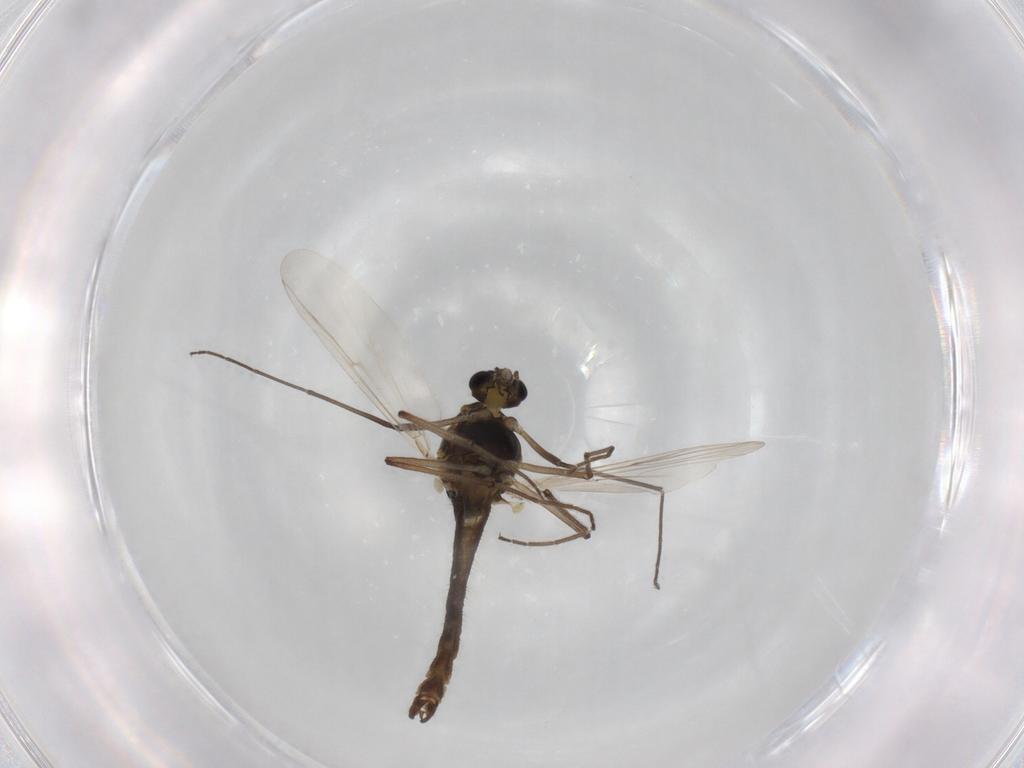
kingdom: Animalia
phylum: Arthropoda
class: Insecta
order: Diptera
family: Chironomidae
